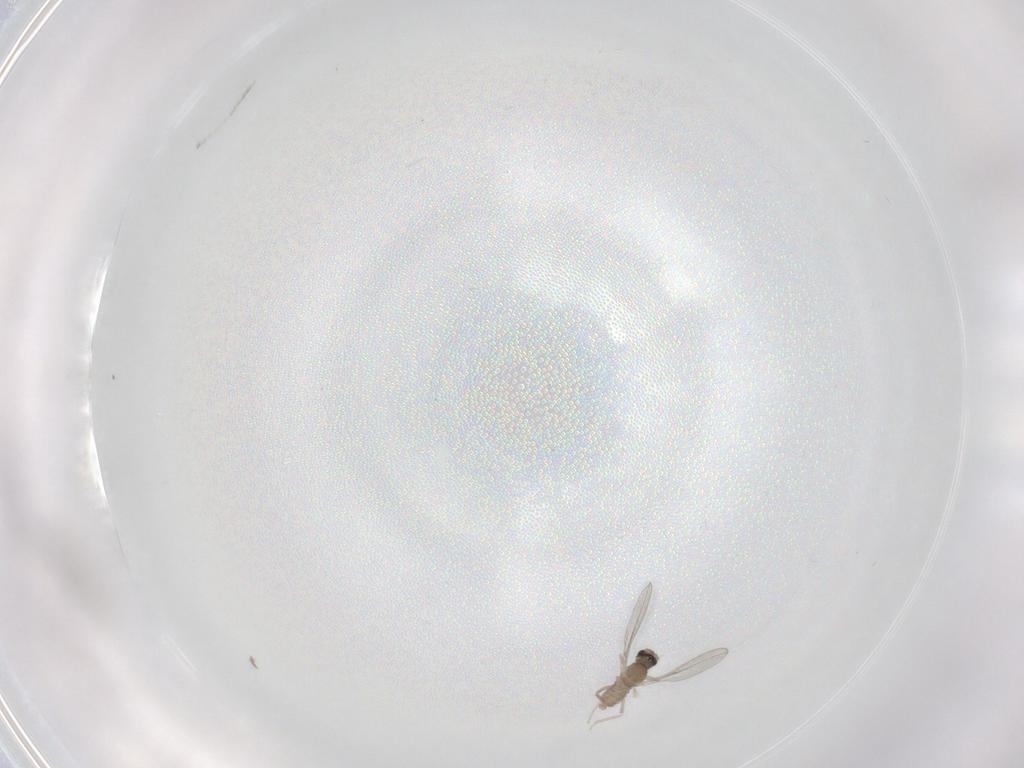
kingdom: Animalia
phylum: Arthropoda
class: Insecta
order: Diptera
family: Cecidomyiidae
